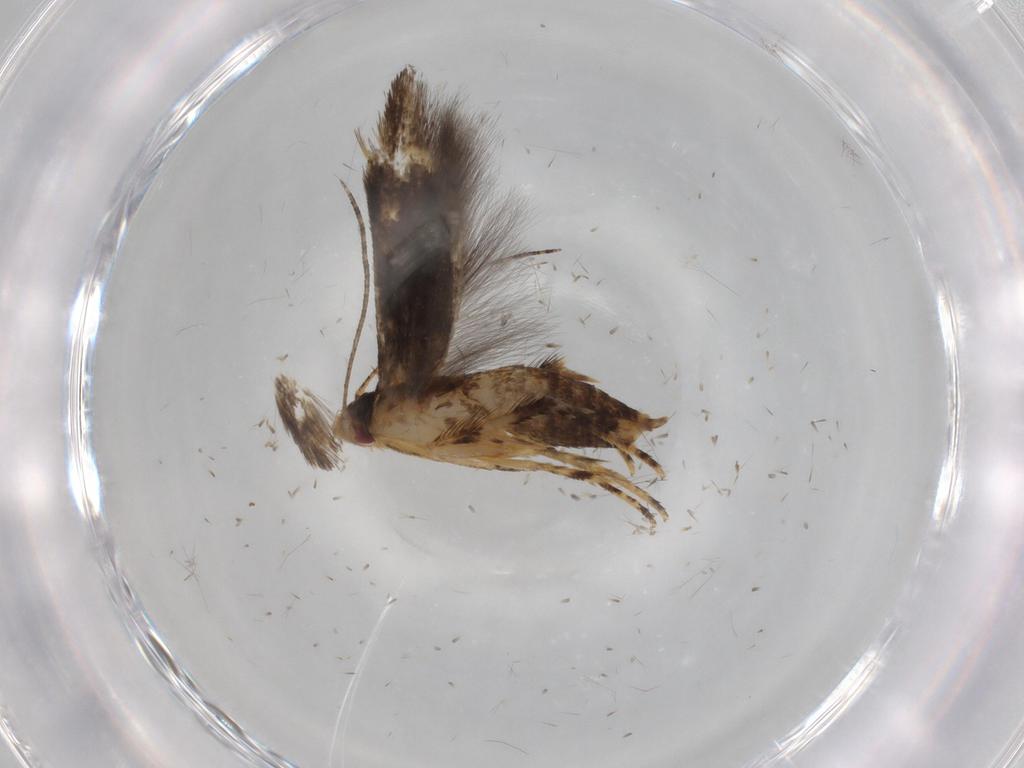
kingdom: Animalia
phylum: Arthropoda
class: Insecta
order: Lepidoptera
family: Momphidae
